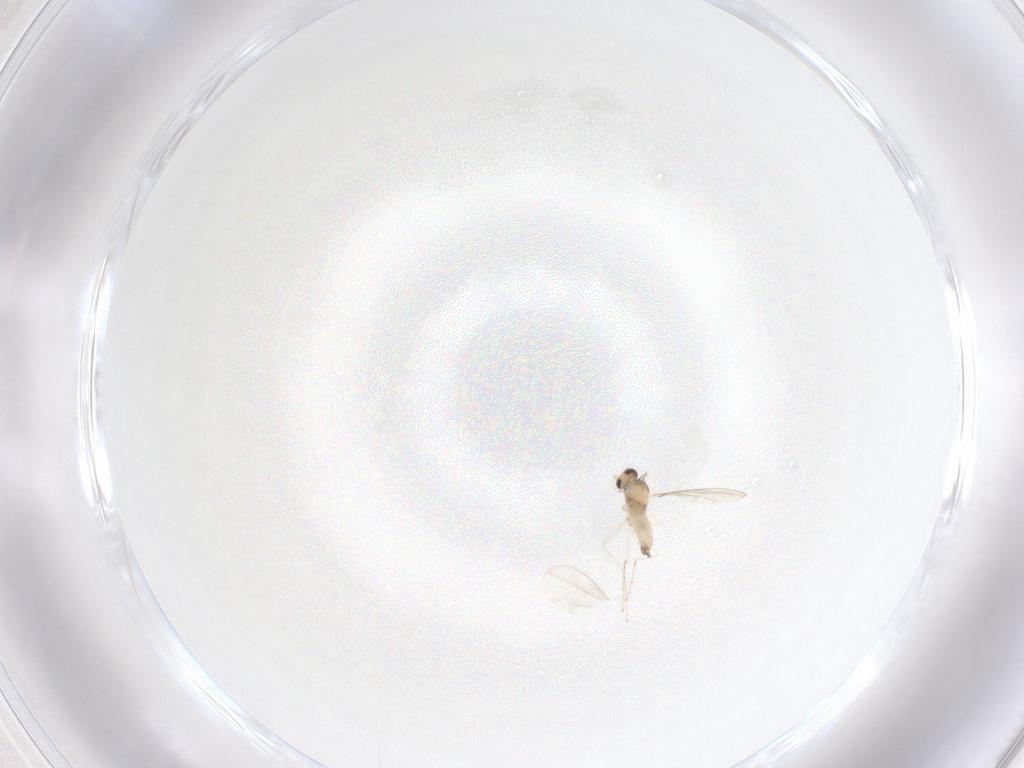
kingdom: Animalia
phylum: Arthropoda
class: Insecta
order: Diptera
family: Cecidomyiidae
